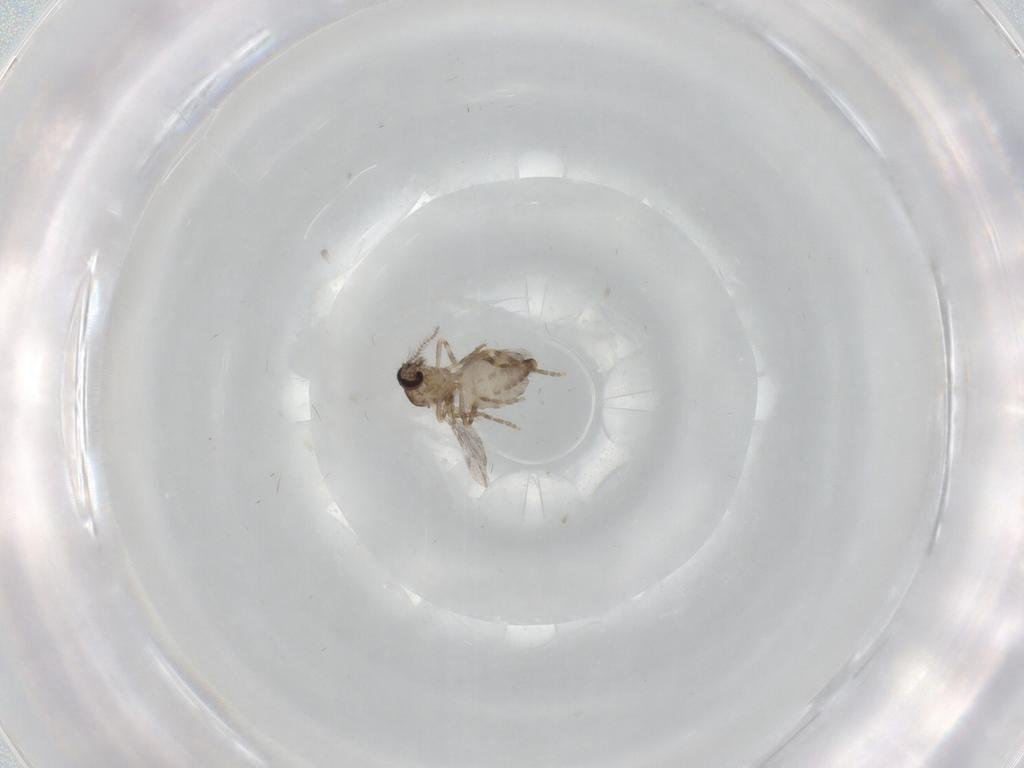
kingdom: Animalia
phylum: Arthropoda
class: Insecta
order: Diptera
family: Ceratopogonidae
